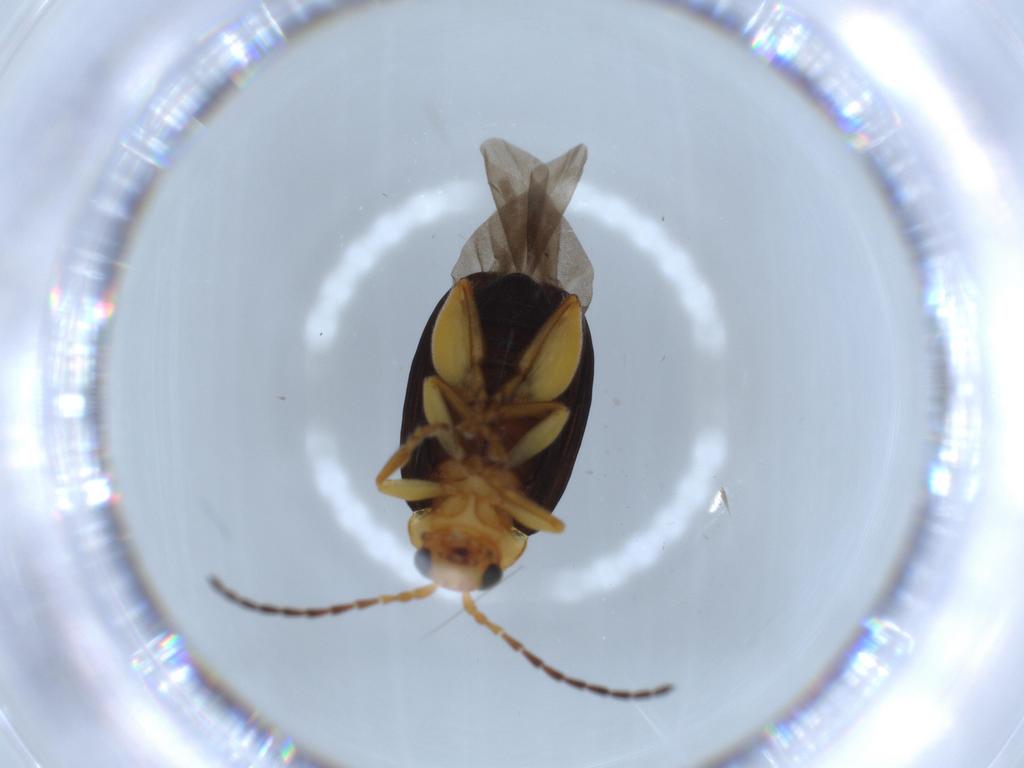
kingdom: Animalia
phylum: Arthropoda
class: Insecta
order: Coleoptera
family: Chrysomelidae
